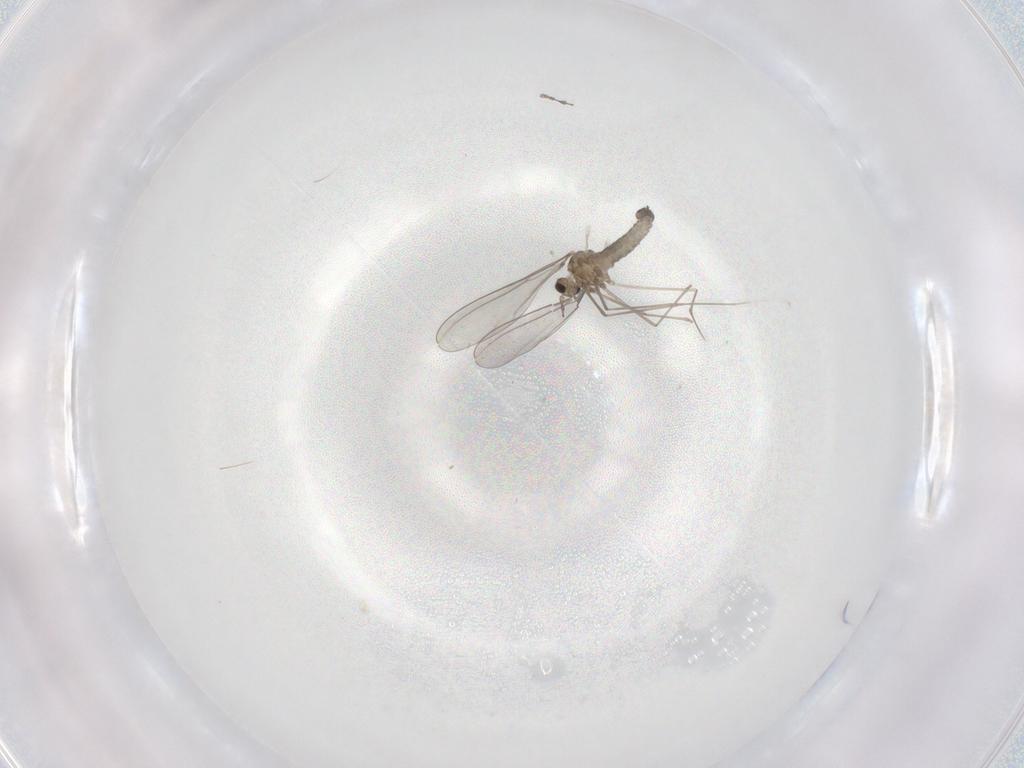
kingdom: Animalia
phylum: Arthropoda
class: Insecta
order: Diptera
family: Cecidomyiidae
